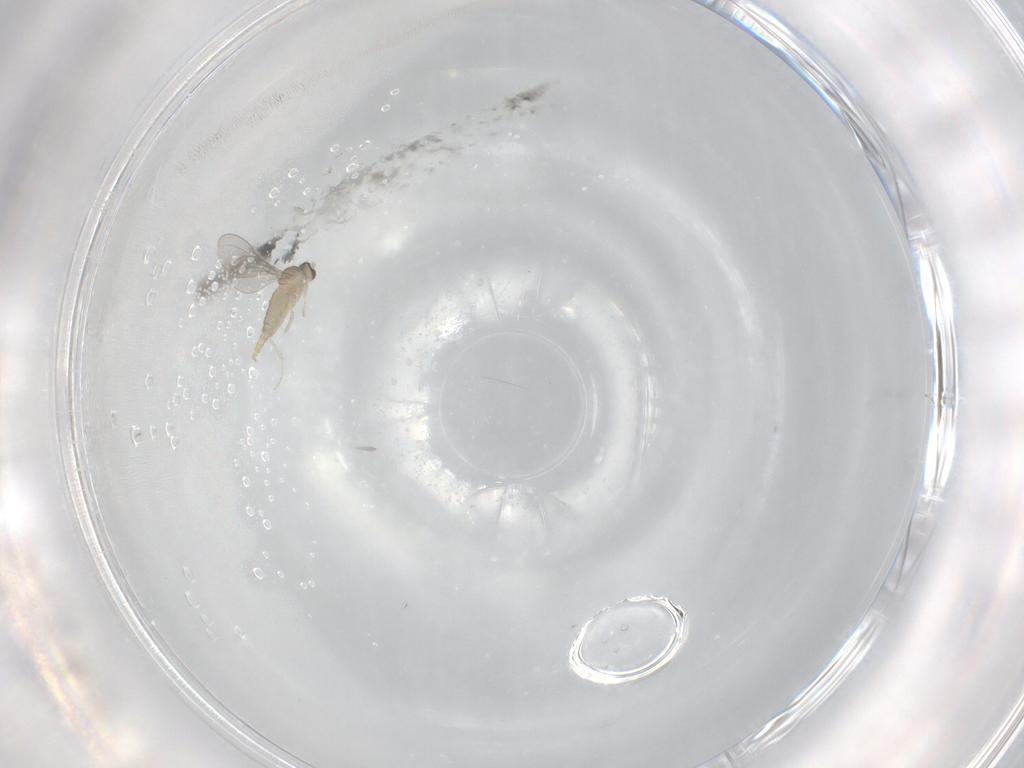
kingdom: Animalia
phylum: Arthropoda
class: Insecta
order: Diptera
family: Cecidomyiidae
